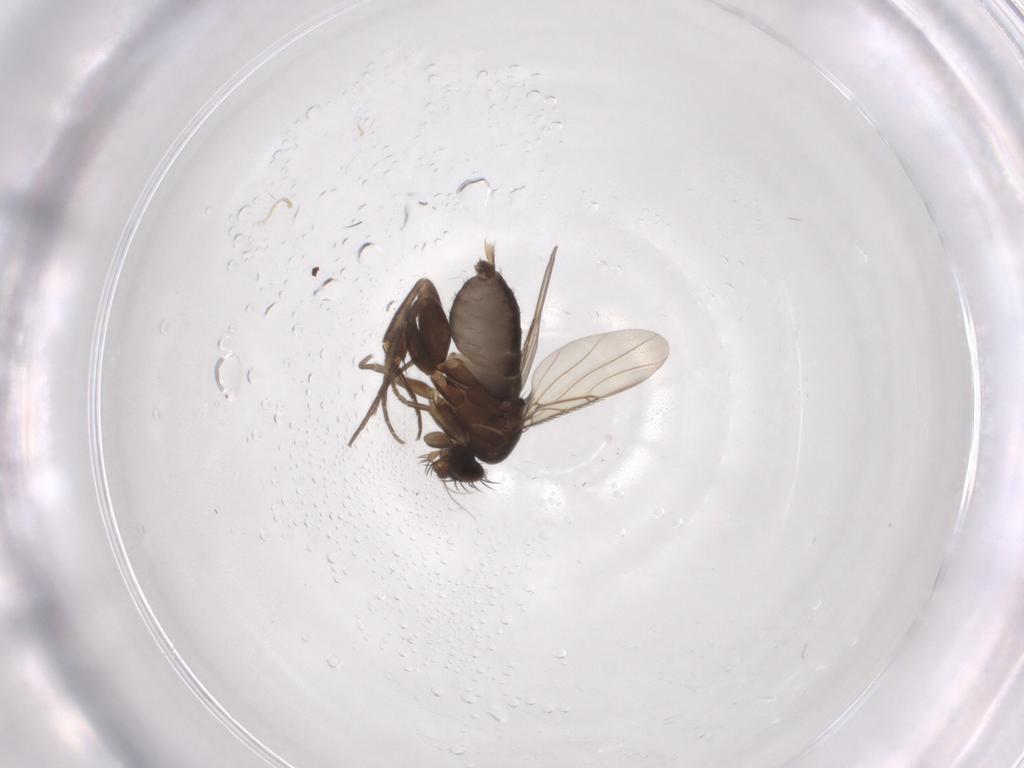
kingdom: Animalia
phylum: Arthropoda
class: Insecta
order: Diptera
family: Phoridae
